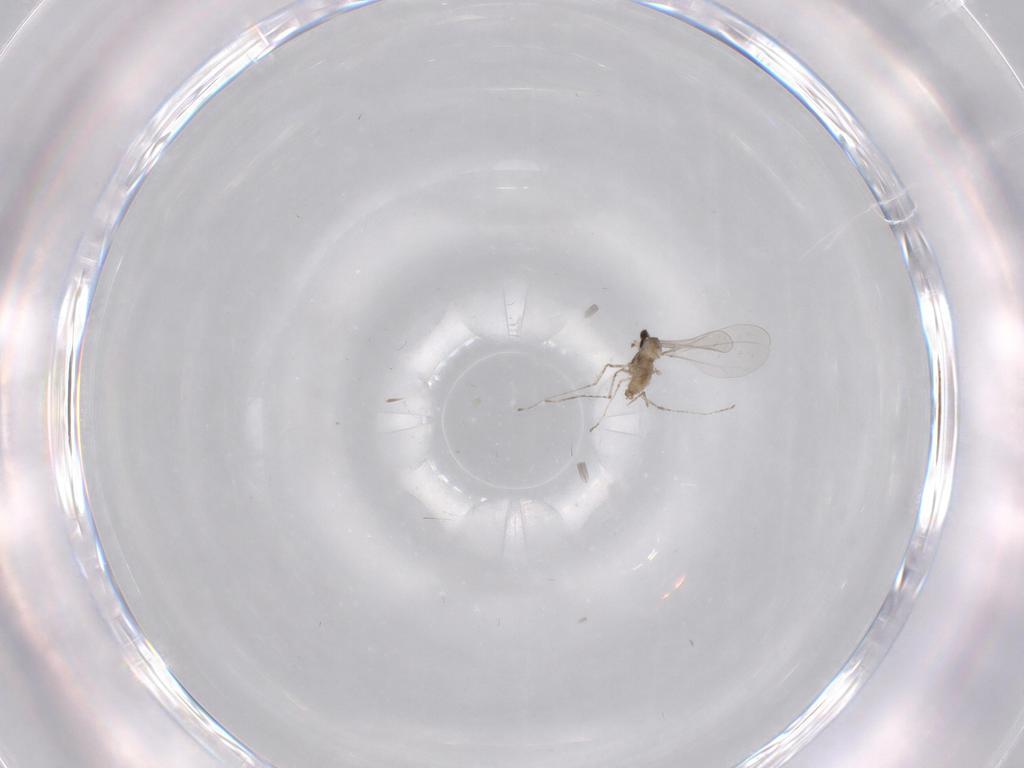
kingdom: Animalia
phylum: Arthropoda
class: Insecta
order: Diptera
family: Cecidomyiidae
